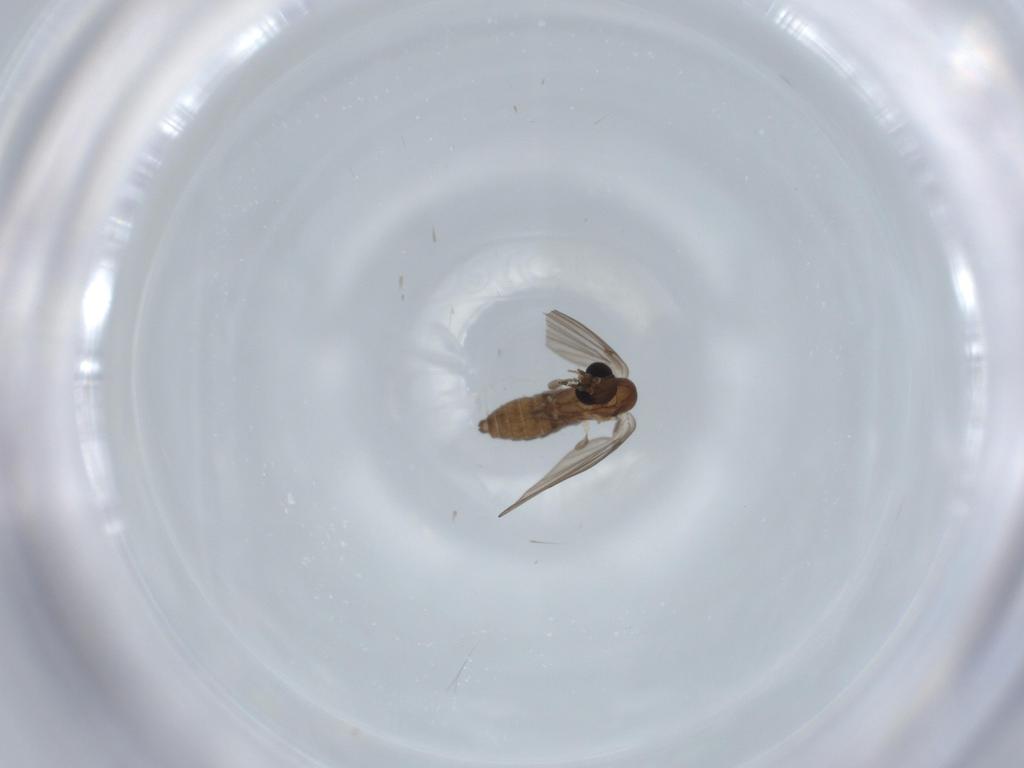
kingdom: Animalia
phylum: Arthropoda
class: Insecta
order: Diptera
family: Psychodidae
